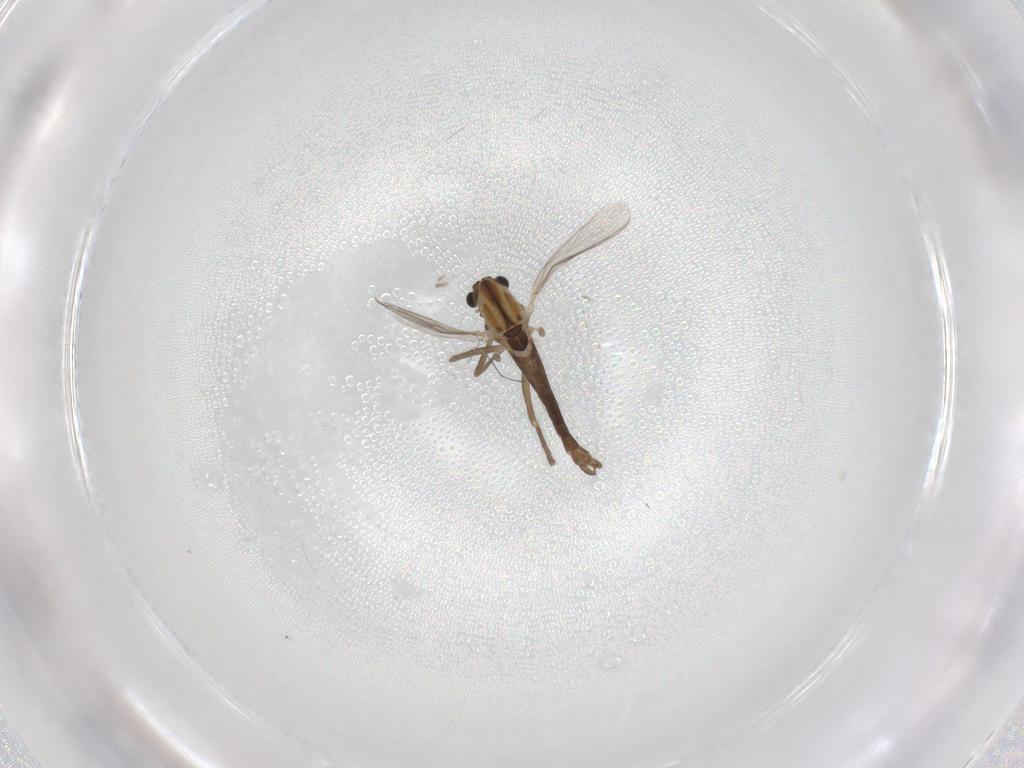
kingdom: Animalia
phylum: Arthropoda
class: Insecta
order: Diptera
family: Chironomidae
